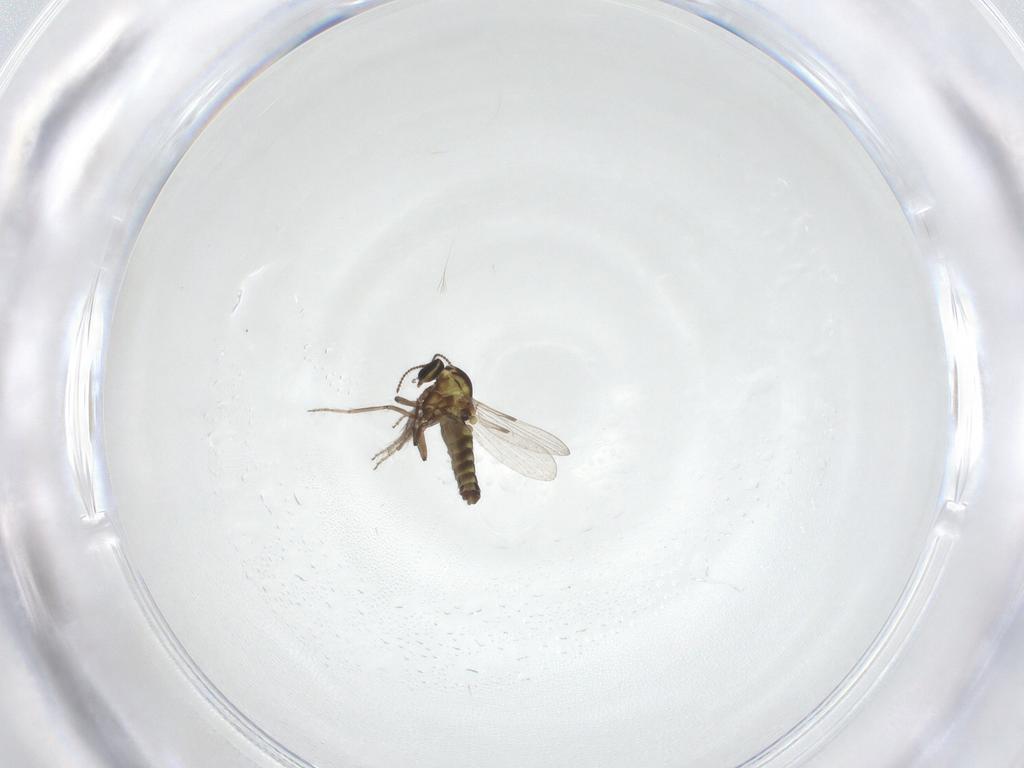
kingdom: Animalia
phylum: Arthropoda
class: Insecta
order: Diptera
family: Ceratopogonidae
